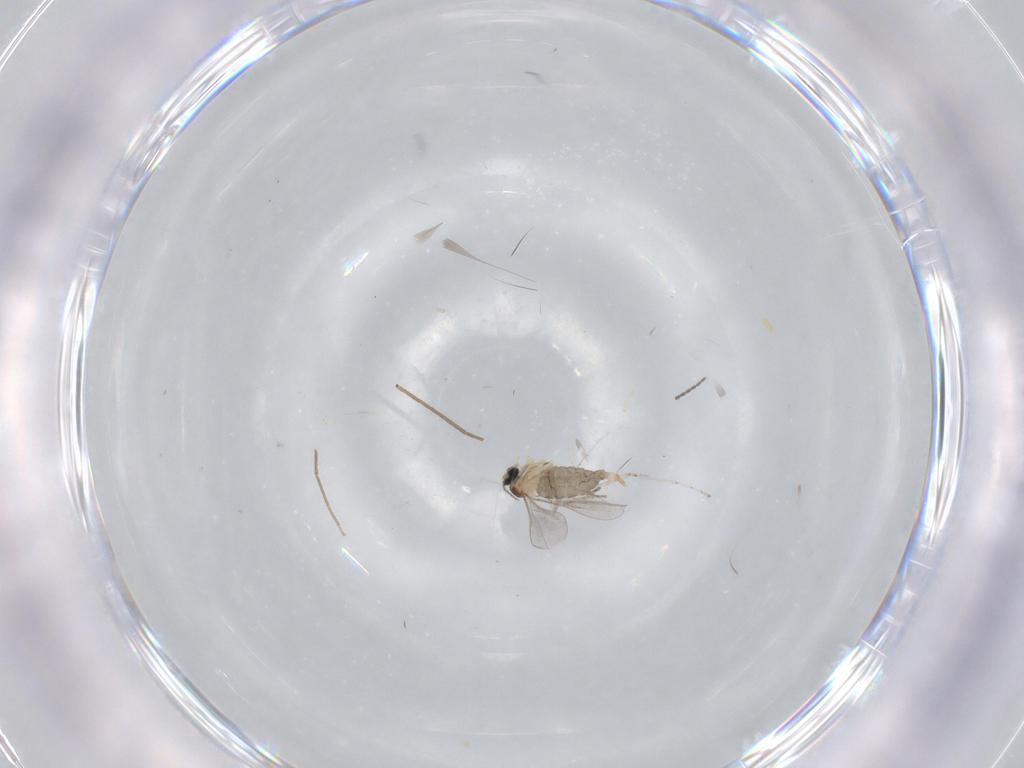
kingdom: Animalia
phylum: Arthropoda
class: Insecta
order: Diptera
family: Cecidomyiidae
